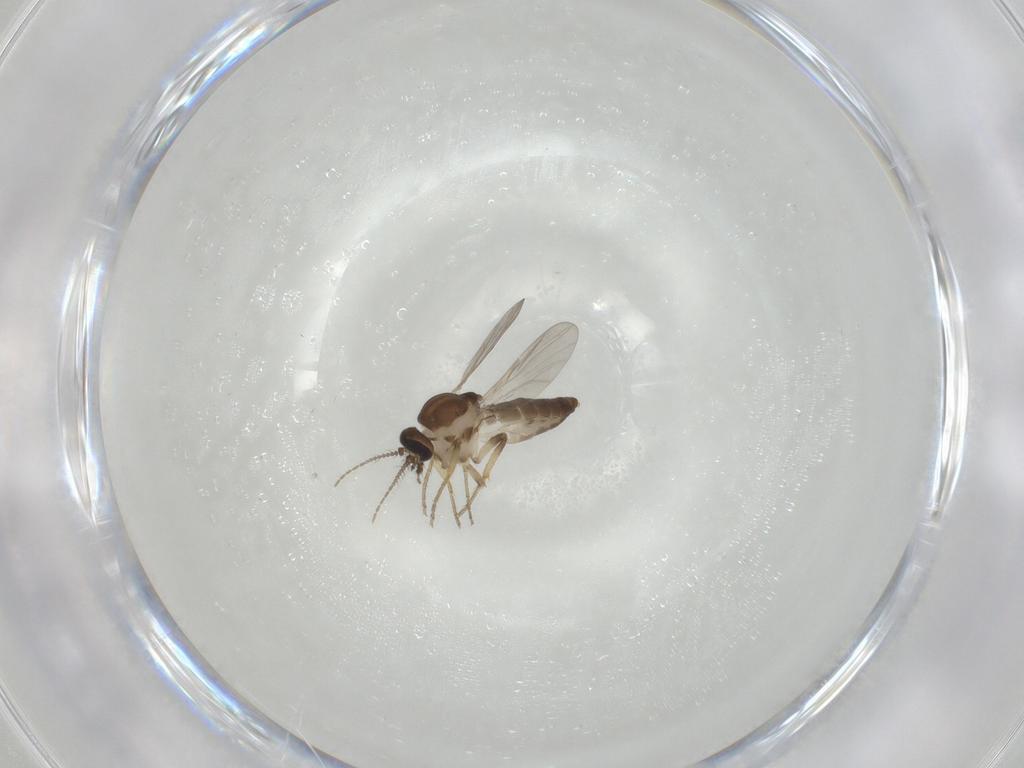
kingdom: Animalia
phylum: Arthropoda
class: Insecta
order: Diptera
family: Ceratopogonidae
